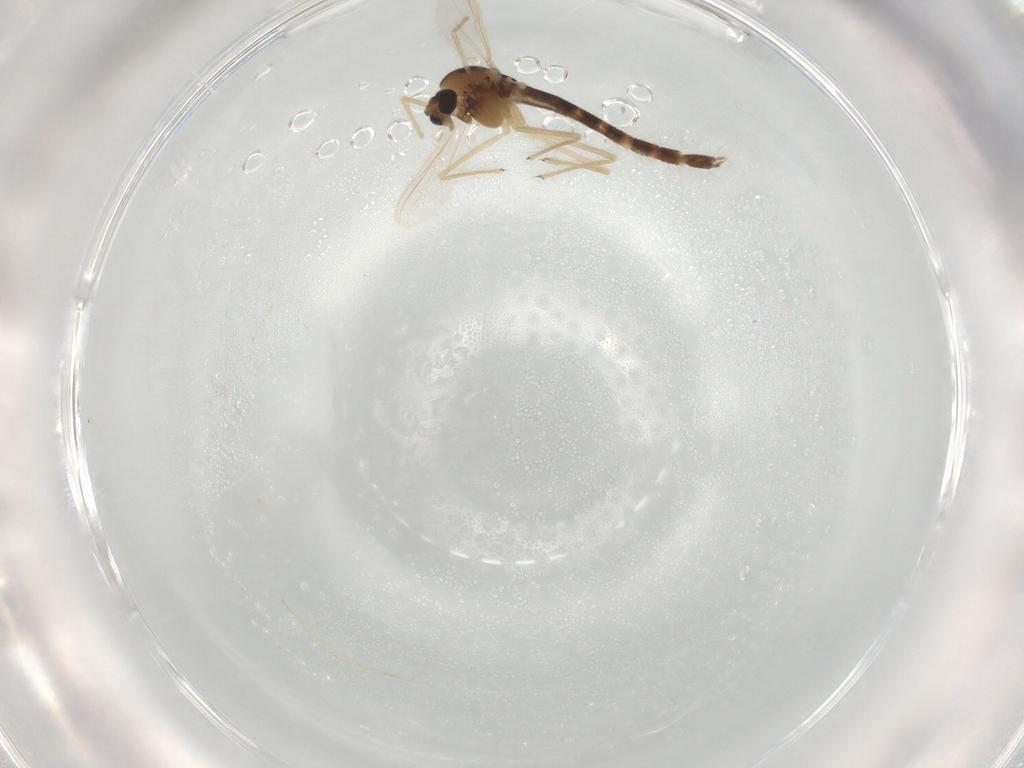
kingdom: Animalia
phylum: Arthropoda
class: Insecta
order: Diptera
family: Chironomidae
